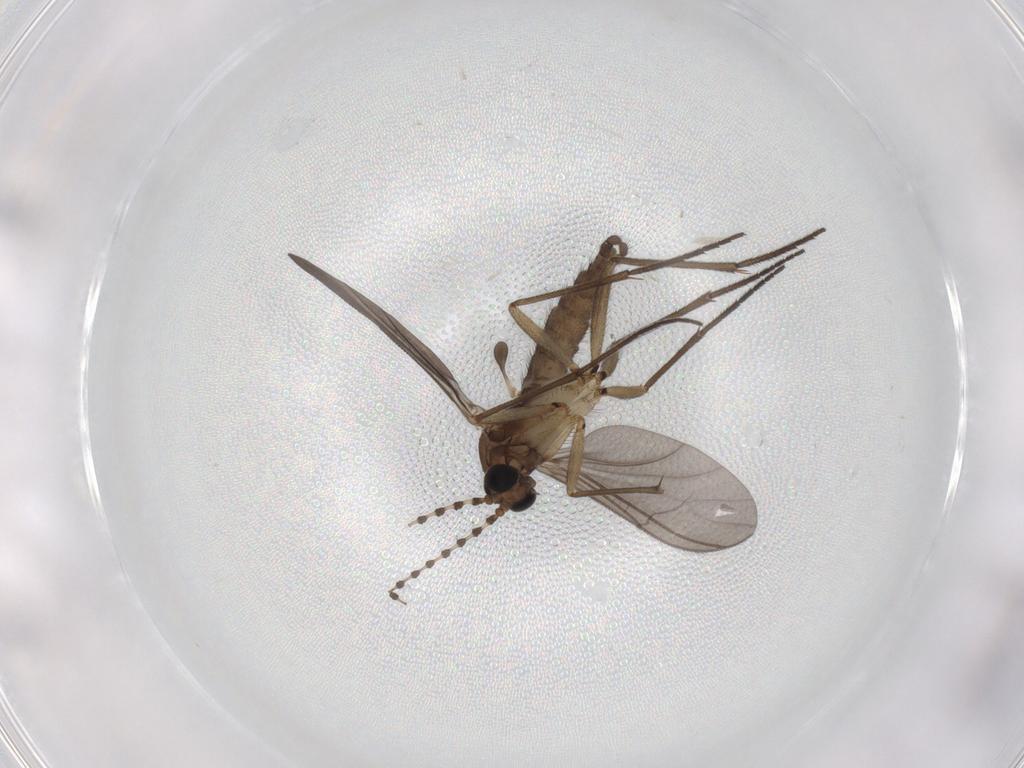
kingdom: Animalia
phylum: Arthropoda
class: Insecta
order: Diptera
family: Sciaridae
